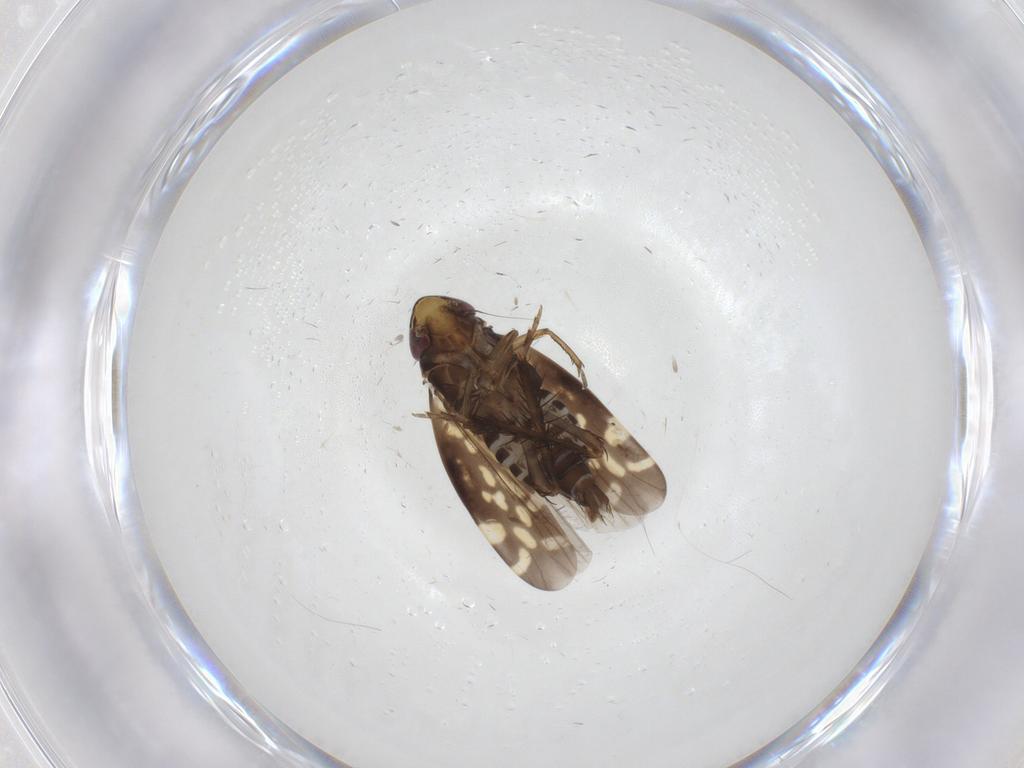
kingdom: Animalia
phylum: Arthropoda
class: Insecta
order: Hemiptera
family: Cicadellidae
